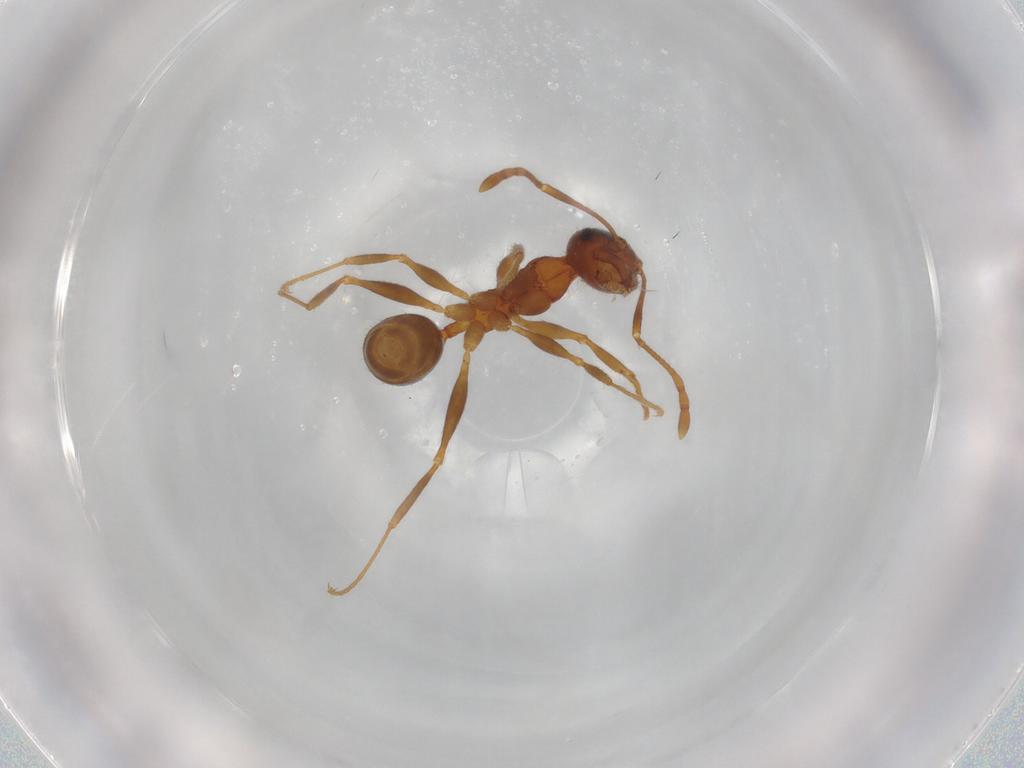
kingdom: Animalia
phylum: Arthropoda
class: Insecta
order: Hymenoptera
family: Formicidae
